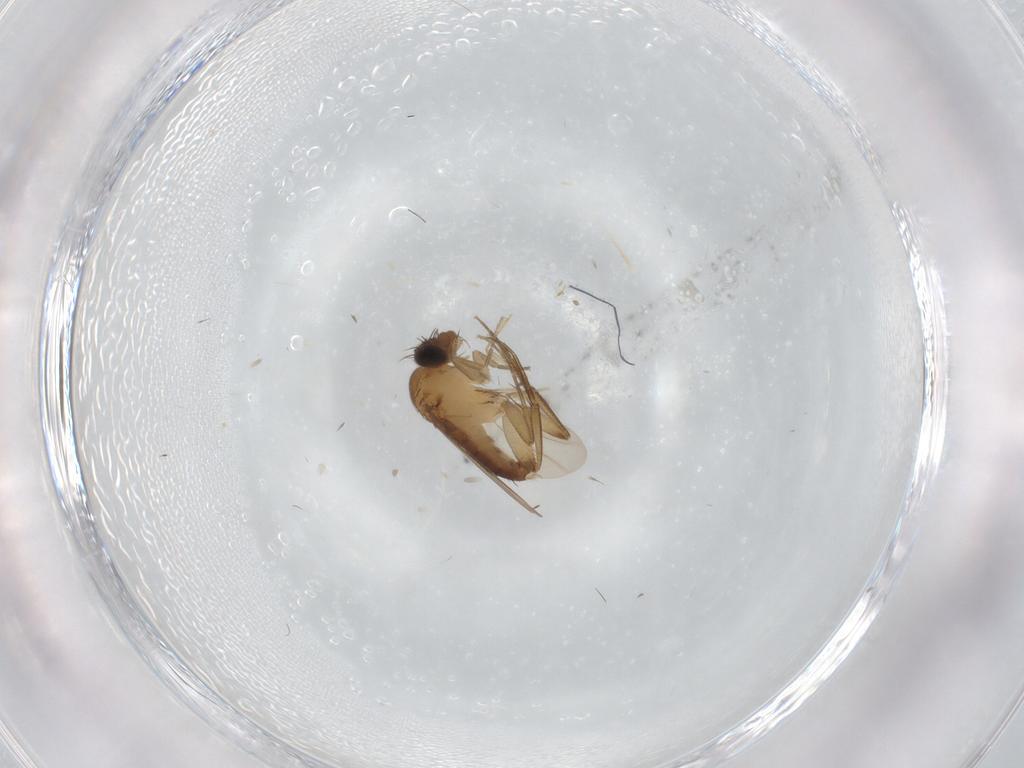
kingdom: Animalia
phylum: Arthropoda
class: Insecta
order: Diptera
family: Phoridae
